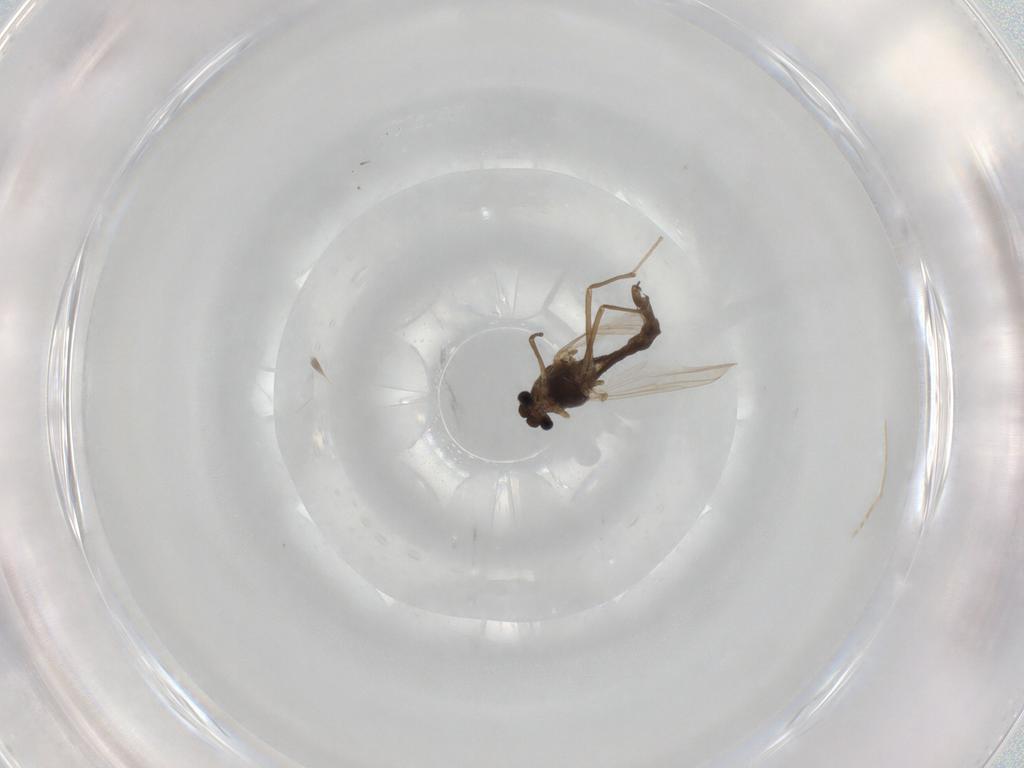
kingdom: Animalia
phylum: Arthropoda
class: Insecta
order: Diptera
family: Chironomidae
